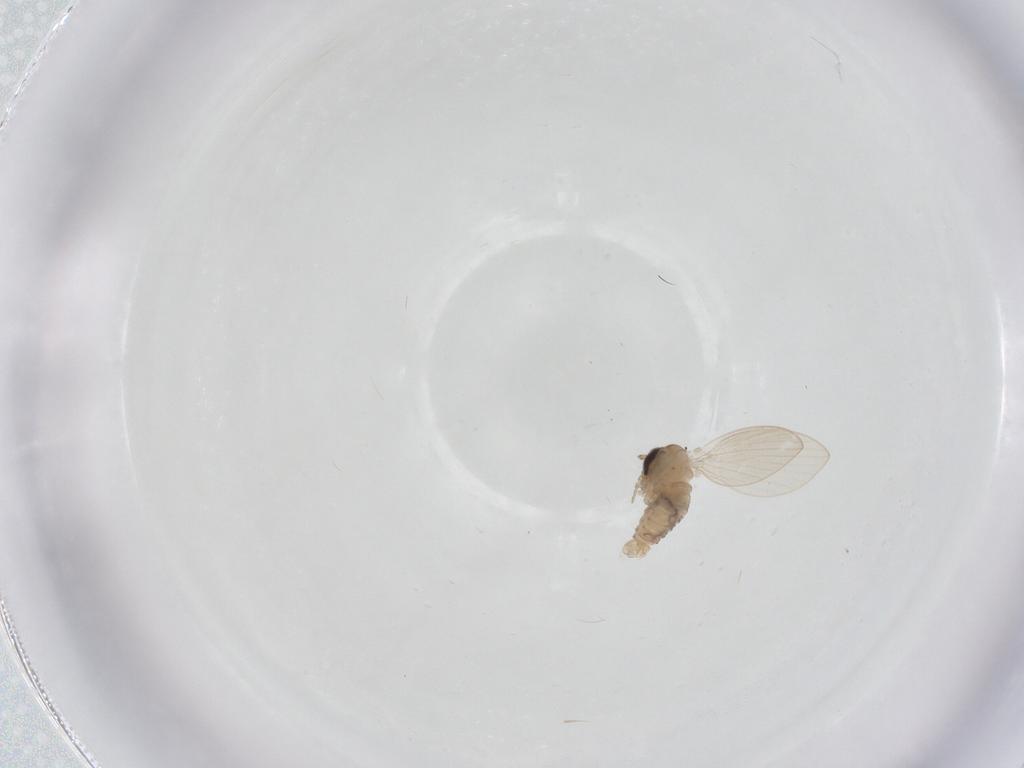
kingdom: Animalia
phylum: Arthropoda
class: Insecta
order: Diptera
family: Psychodidae
